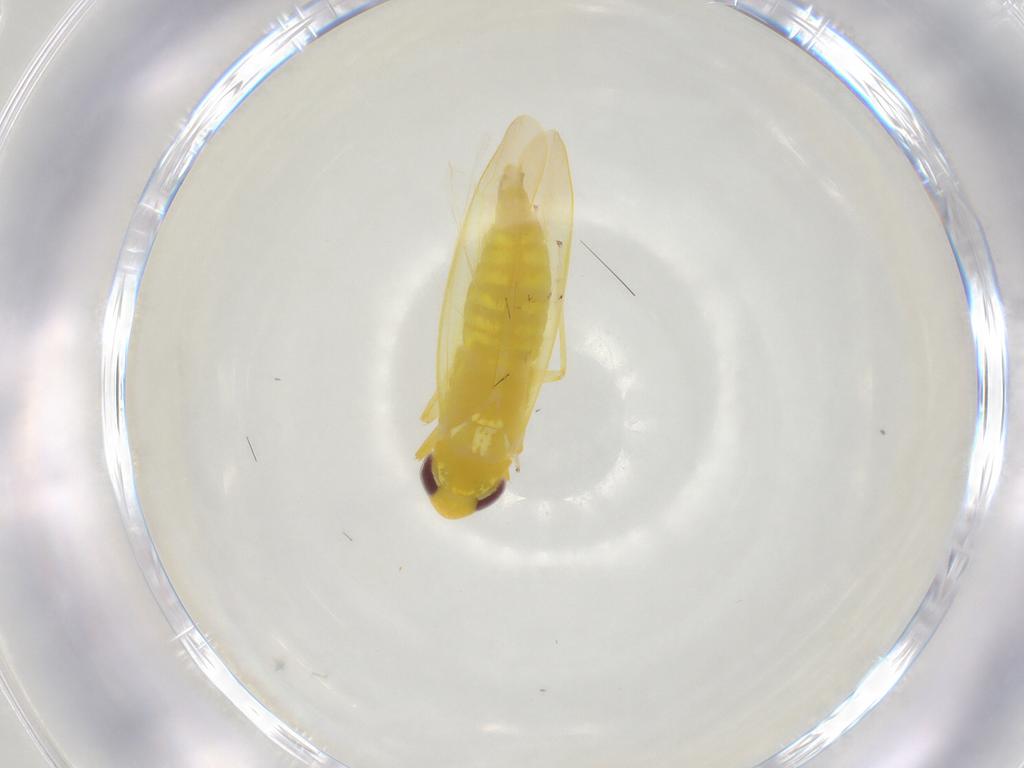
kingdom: Animalia
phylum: Arthropoda
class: Insecta
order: Hemiptera
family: Cicadellidae
